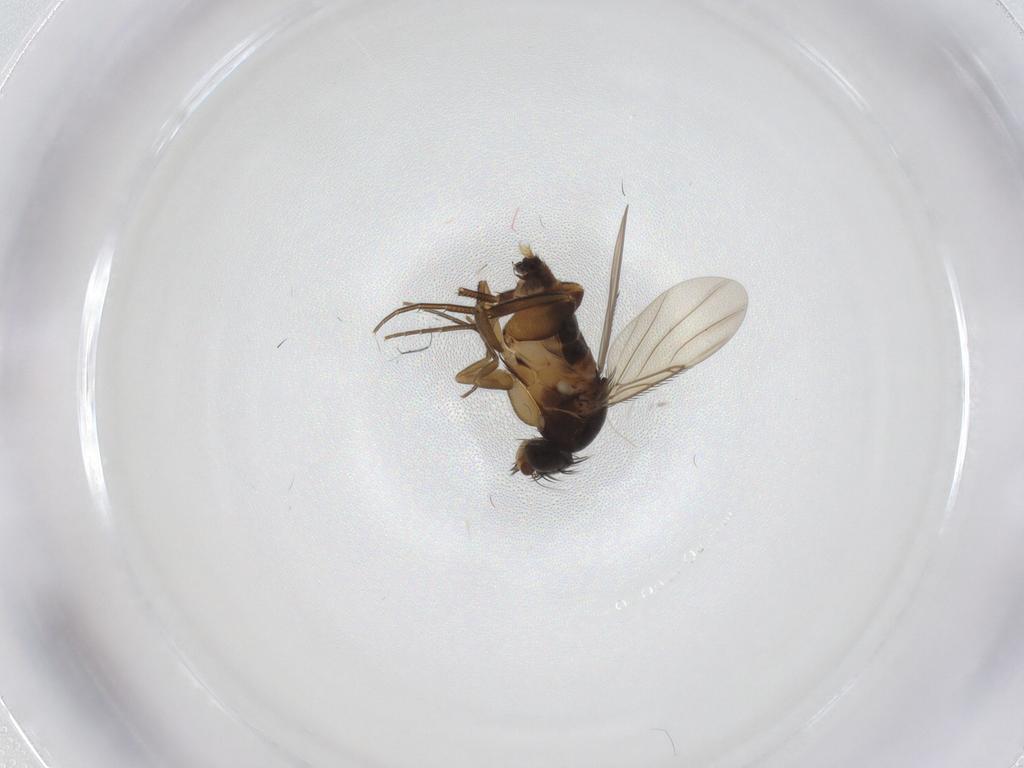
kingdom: Animalia
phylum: Arthropoda
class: Insecta
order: Diptera
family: Phoridae
